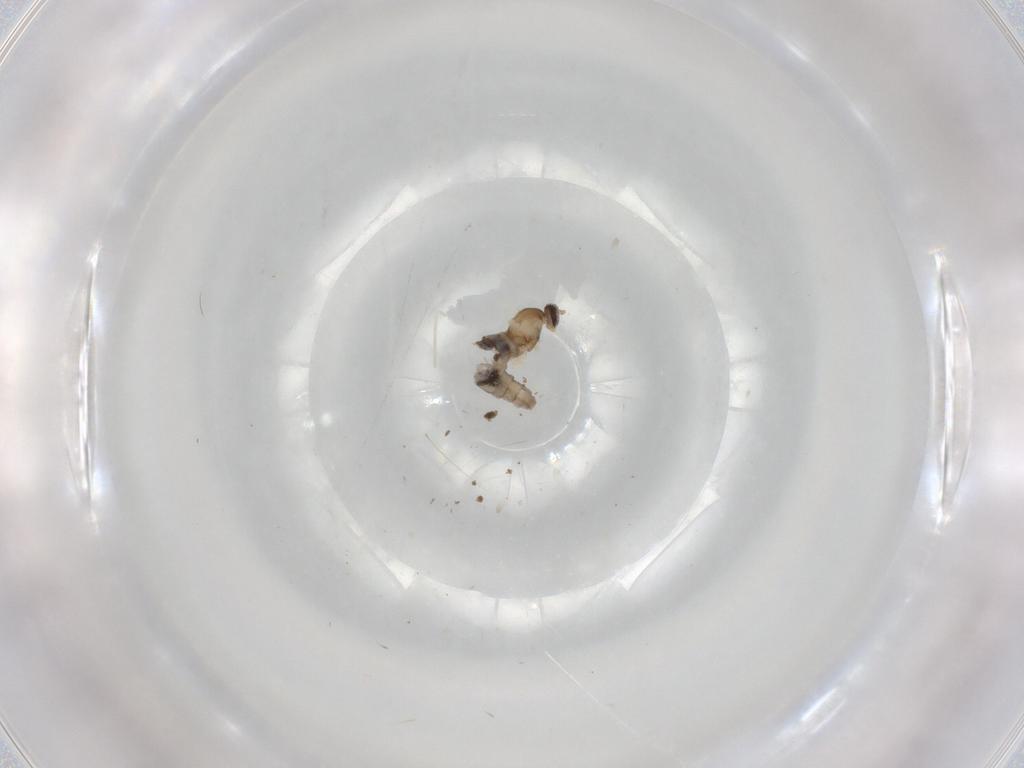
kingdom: Animalia
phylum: Arthropoda
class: Insecta
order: Diptera
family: Cecidomyiidae
